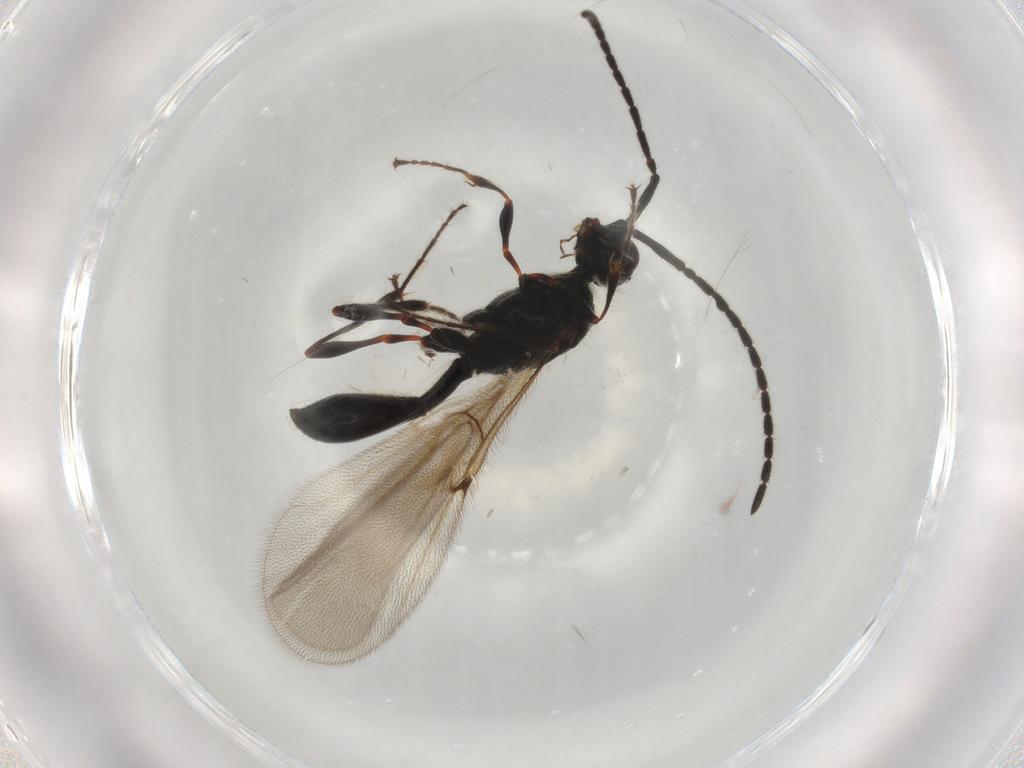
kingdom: Animalia
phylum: Arthropoda
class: Insecta
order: Hymenoptera
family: Diapriidae
